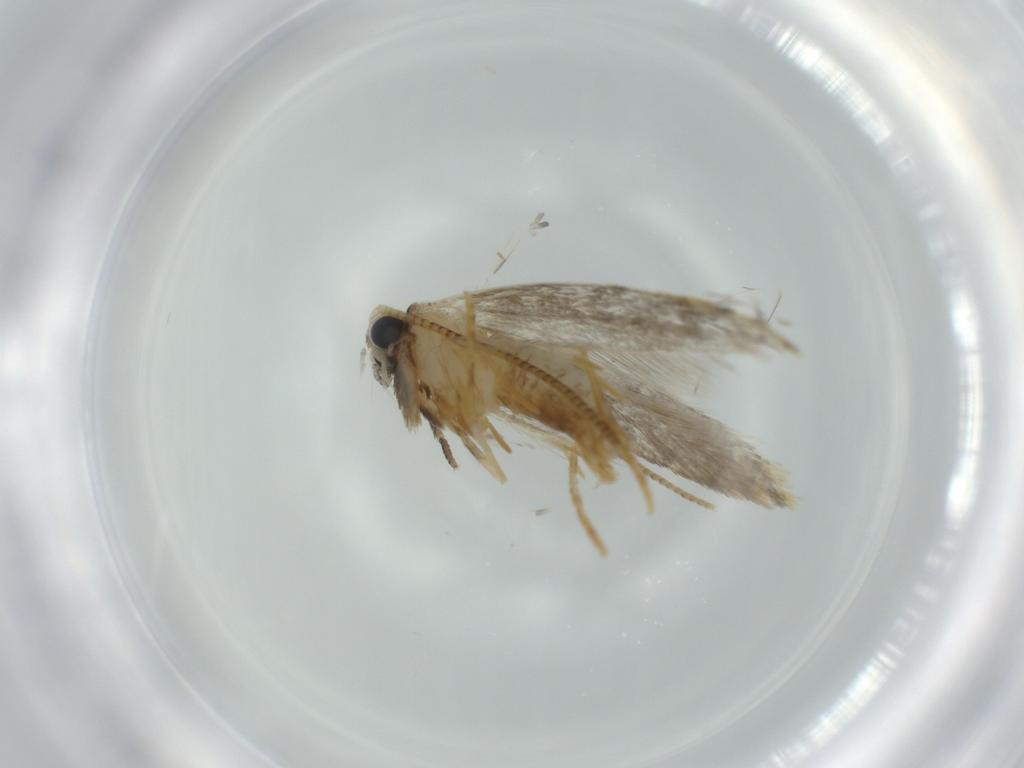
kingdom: Animalia
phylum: Arthropoda
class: Insecta
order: Lepidoptera
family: Tineidae
